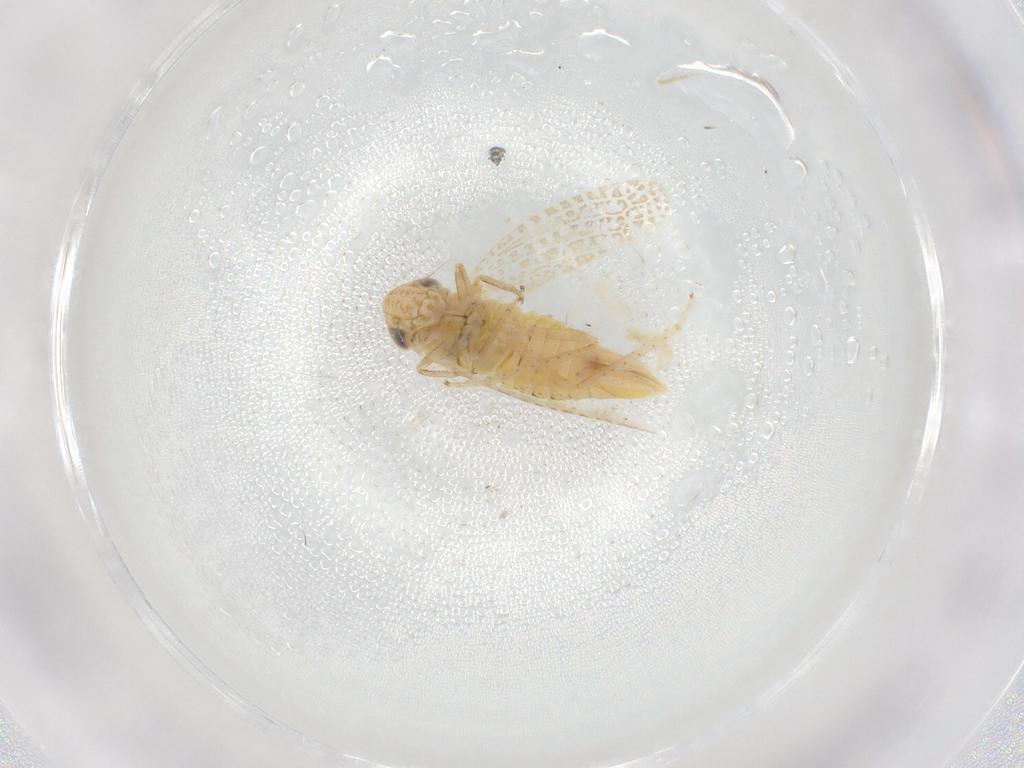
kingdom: Animalia
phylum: Arthropoda
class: Insecta
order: Hemiptera
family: Cicadellidae
